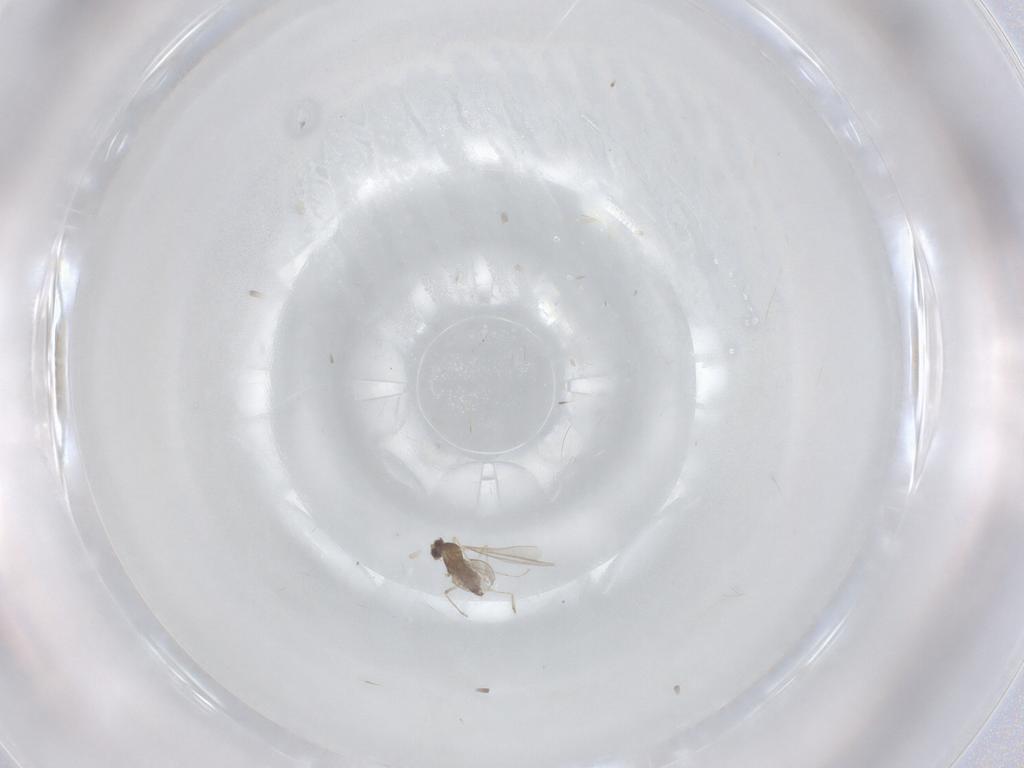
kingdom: Animalia
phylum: Arthropoda
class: Insecta
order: Diptera
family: Cecidomyiidae
